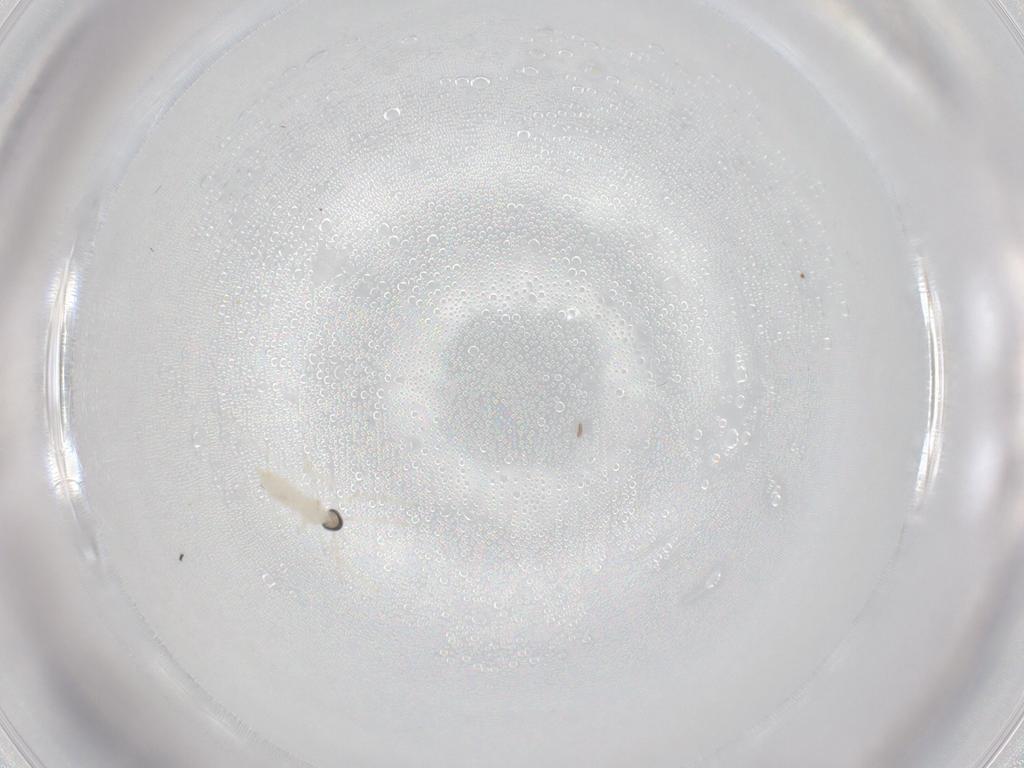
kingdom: Animalia
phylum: Arthropoda
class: Insecta
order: Diptera
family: Cecidomyiidae
